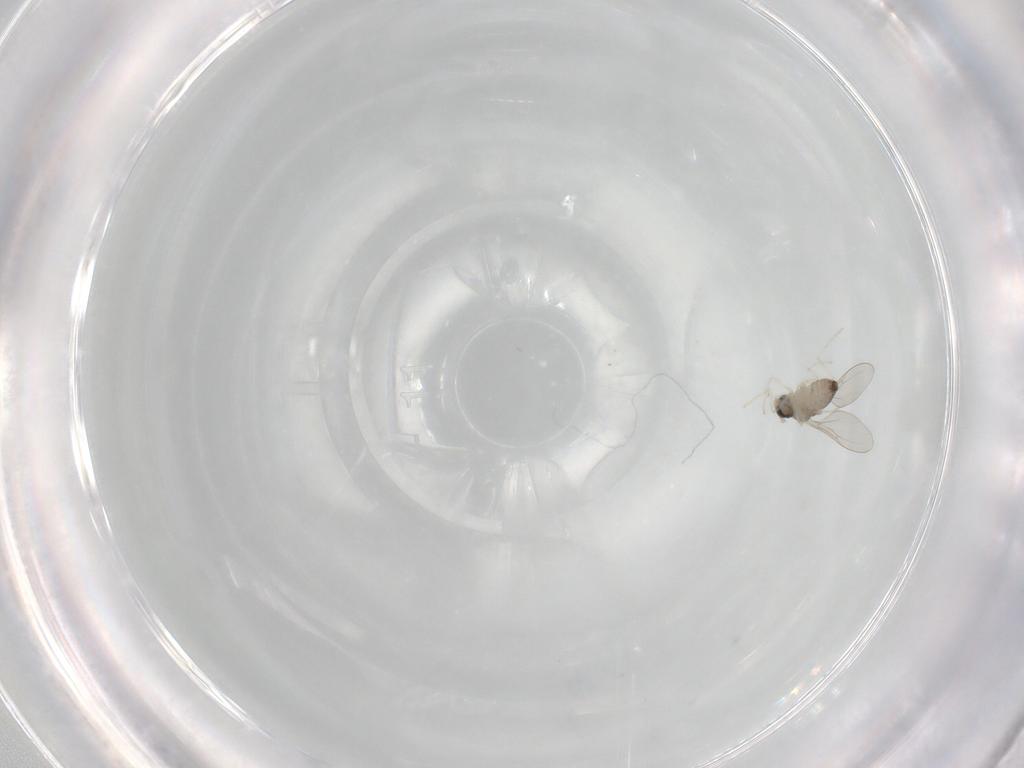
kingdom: Animalia
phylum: Arthropoda
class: Insecta
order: Diptera
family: Cecidomyiidae
